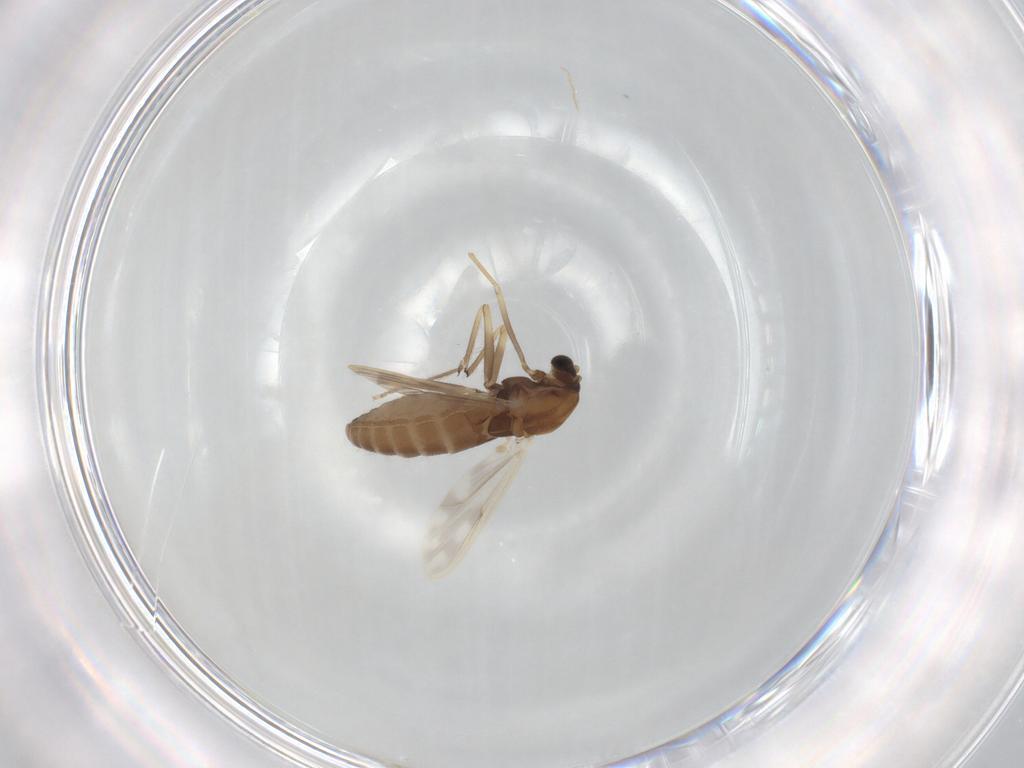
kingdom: Animalia
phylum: Arthropoda
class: Insecta
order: Diptera
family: Chironomidae
